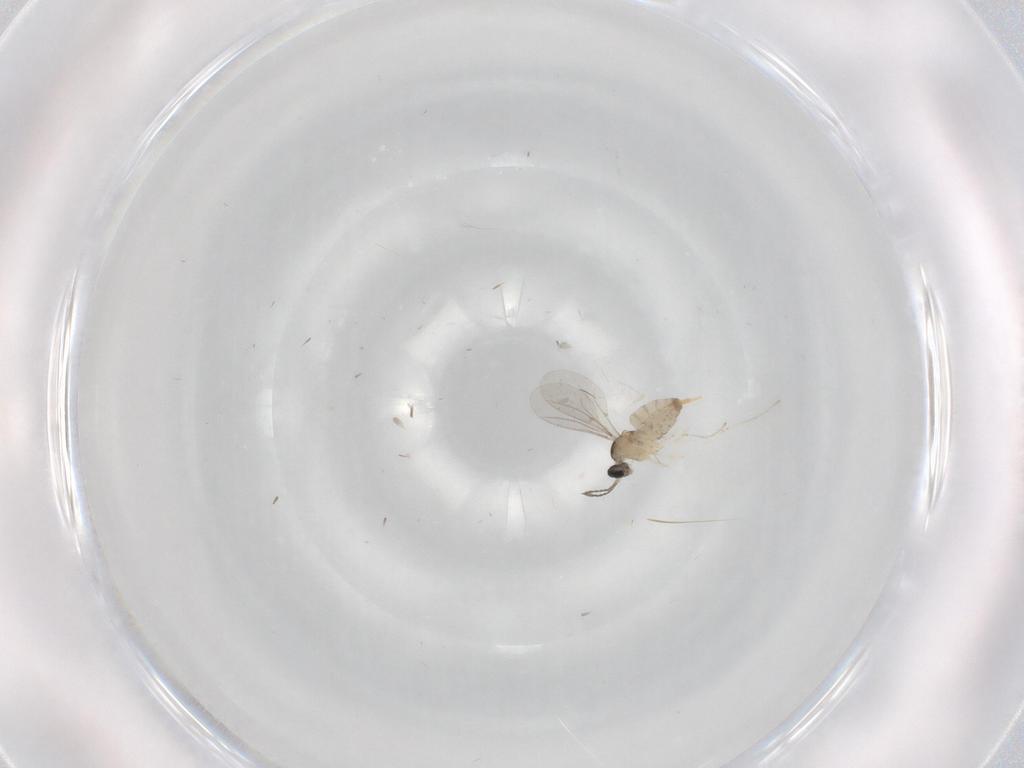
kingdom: Animalia
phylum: Arthropoda
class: Insecta
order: Diptera
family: Cecidomyiidae
